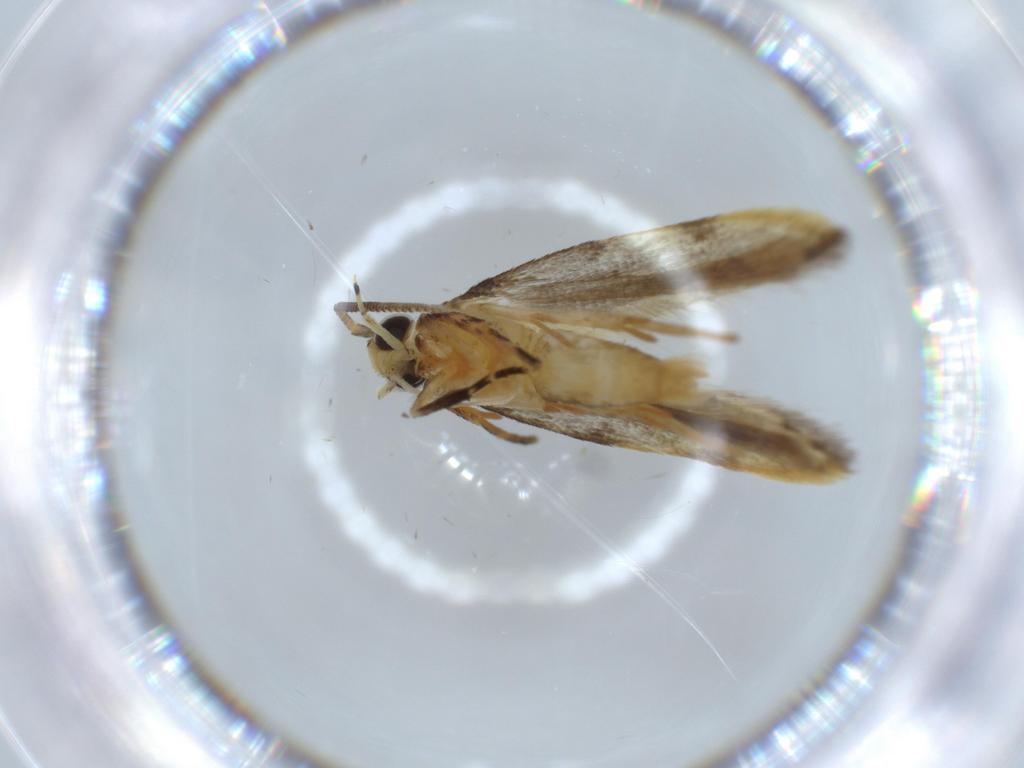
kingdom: Animalia
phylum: Arthropoda
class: Insecta
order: Lepidoptera
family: Autostichidae
